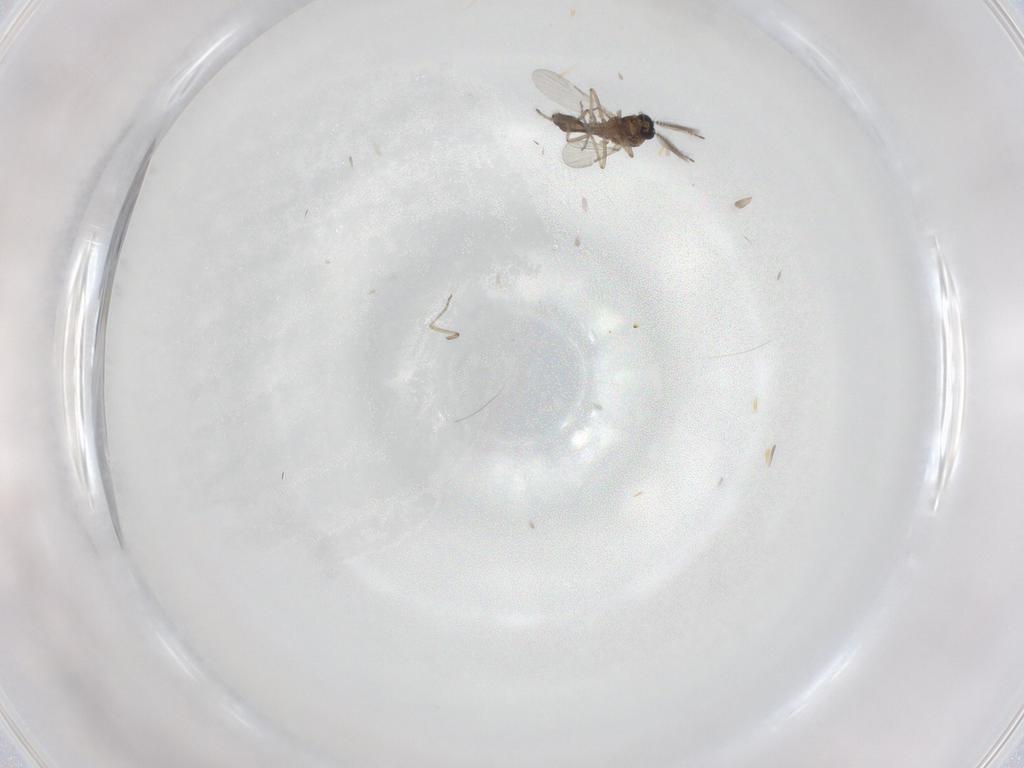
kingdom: Animalia
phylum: Arthropoda
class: Insecta
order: Diptera
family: Ceratopogonidae
